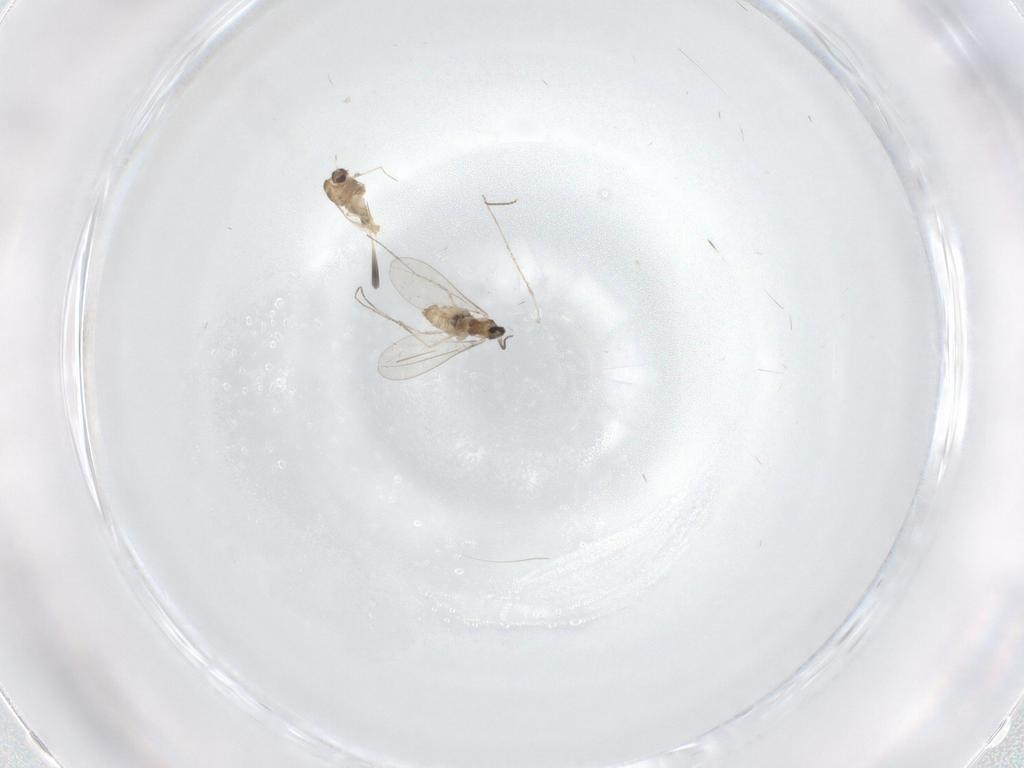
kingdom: Animalia
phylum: Arthropoda
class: Insecta
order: Diptera
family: Cecidomyiidae
